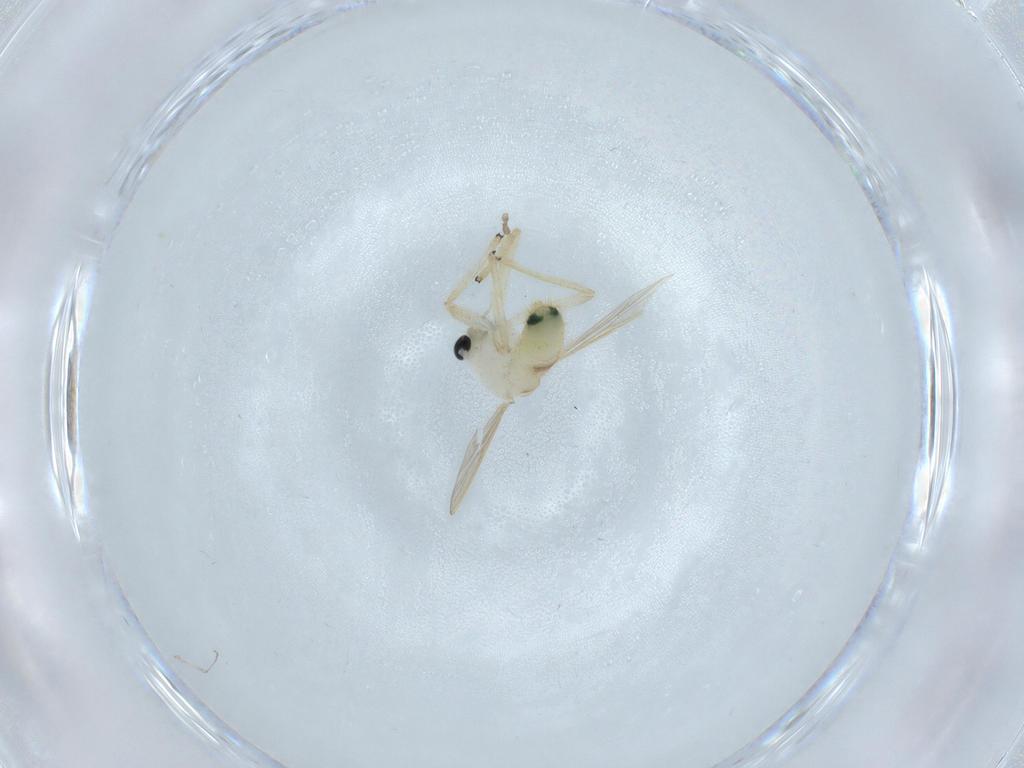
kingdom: Animalia
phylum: Arthropoda
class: Insecta
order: Diptera
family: Chironomidae
